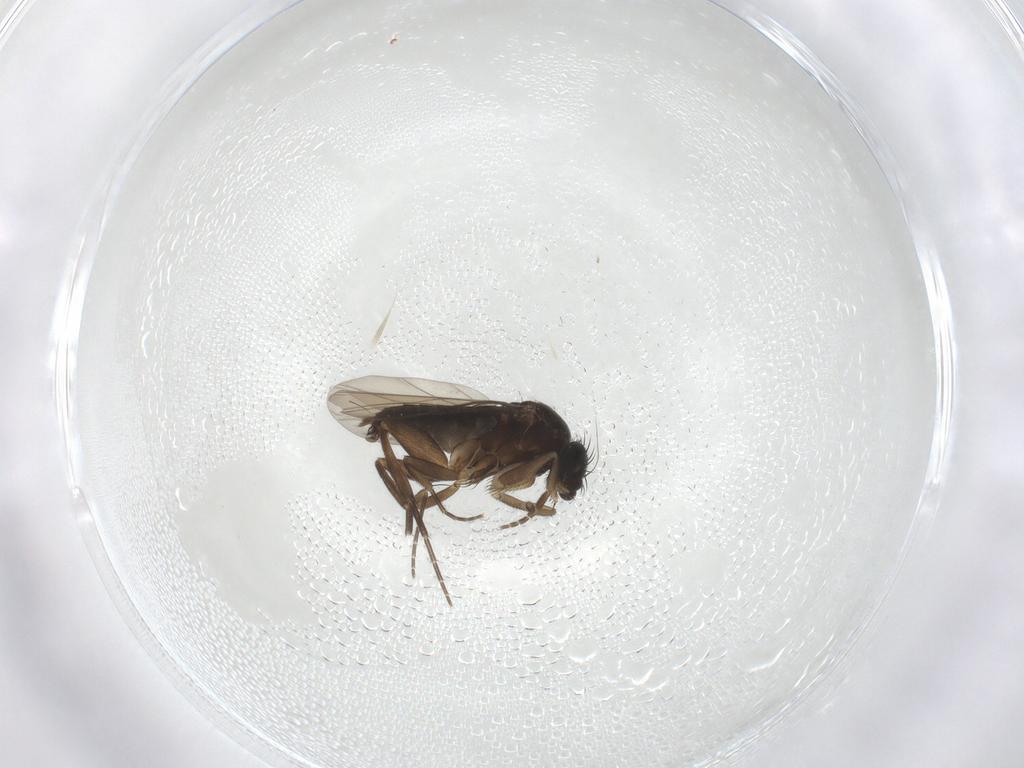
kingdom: Animalia
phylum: Arthropoda
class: Insecta
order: Diptera
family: Phoridae
